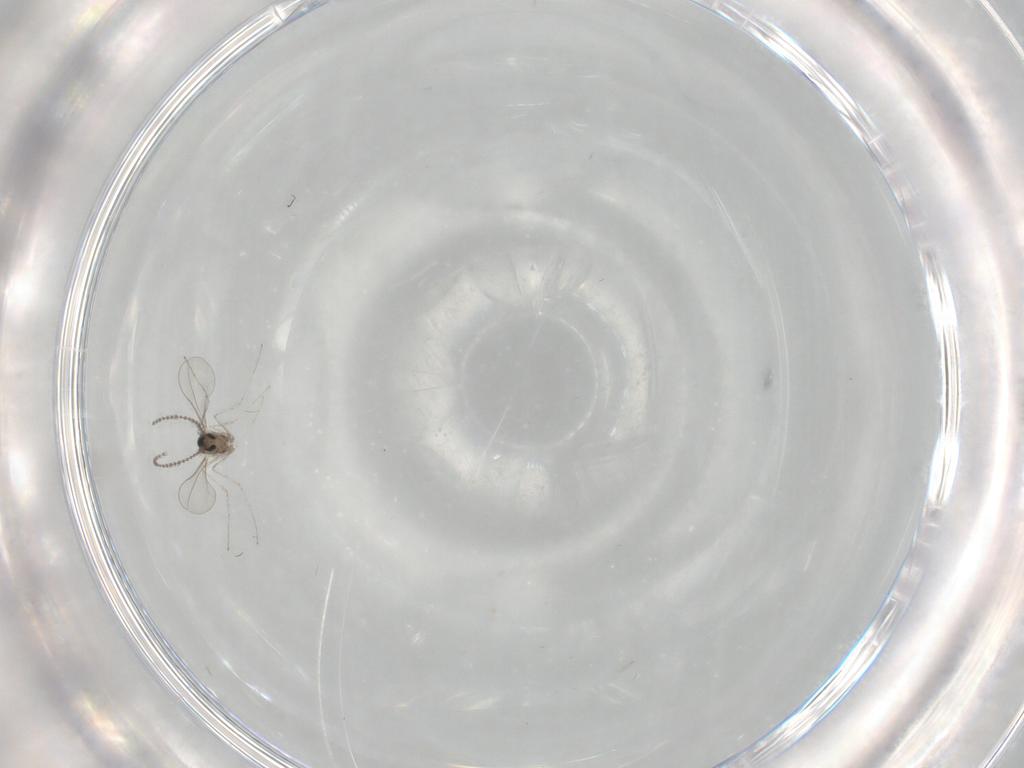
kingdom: Animalia
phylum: Arthropoda
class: Insecta
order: Diptera
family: Cecidomyiidae
